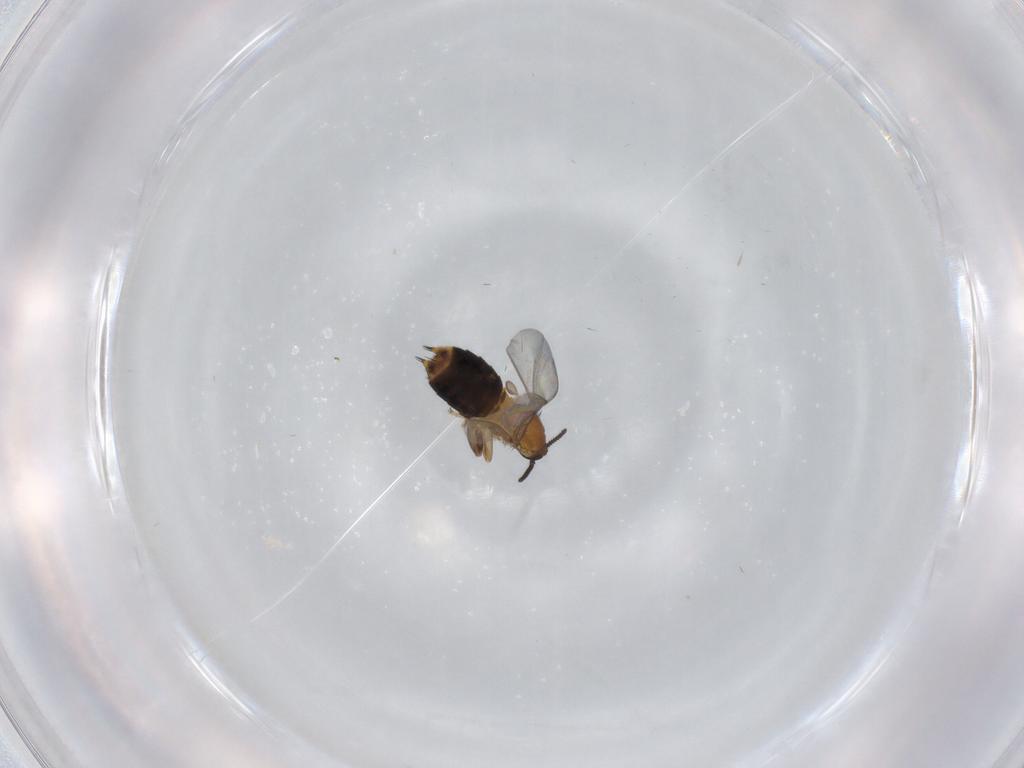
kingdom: Animalia
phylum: Arthropoda
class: Insecta
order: Diptera
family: Scatopsidae
